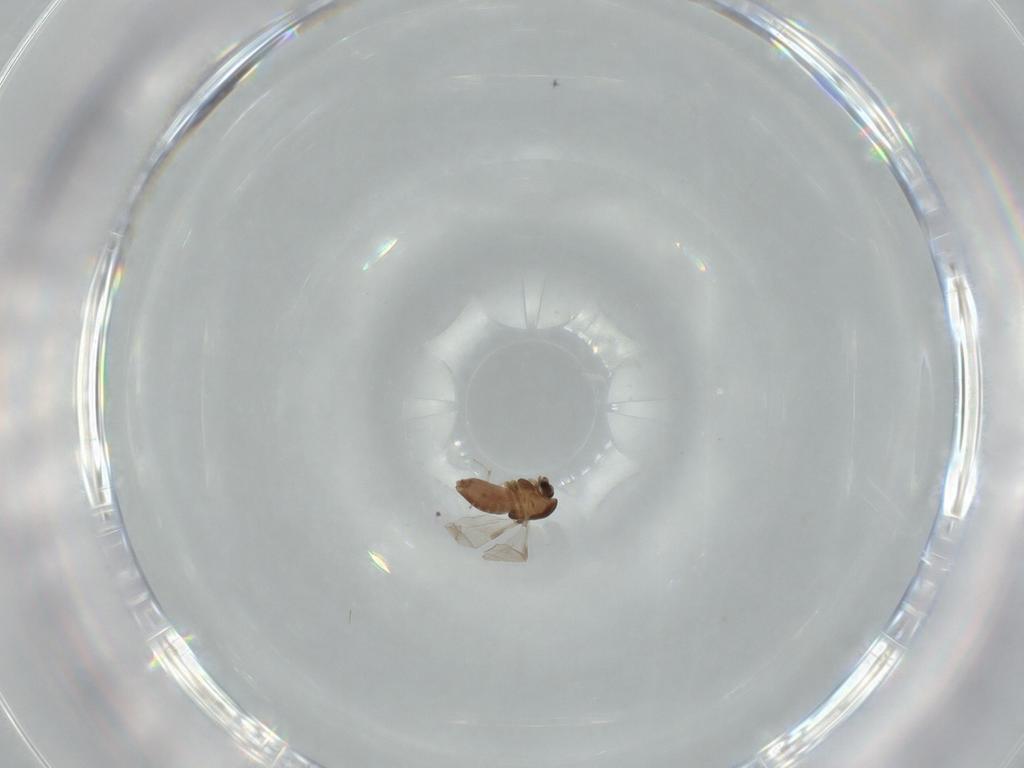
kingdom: Animalia
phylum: Arthropoda
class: Insecta
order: Diptera
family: Chironomidae
